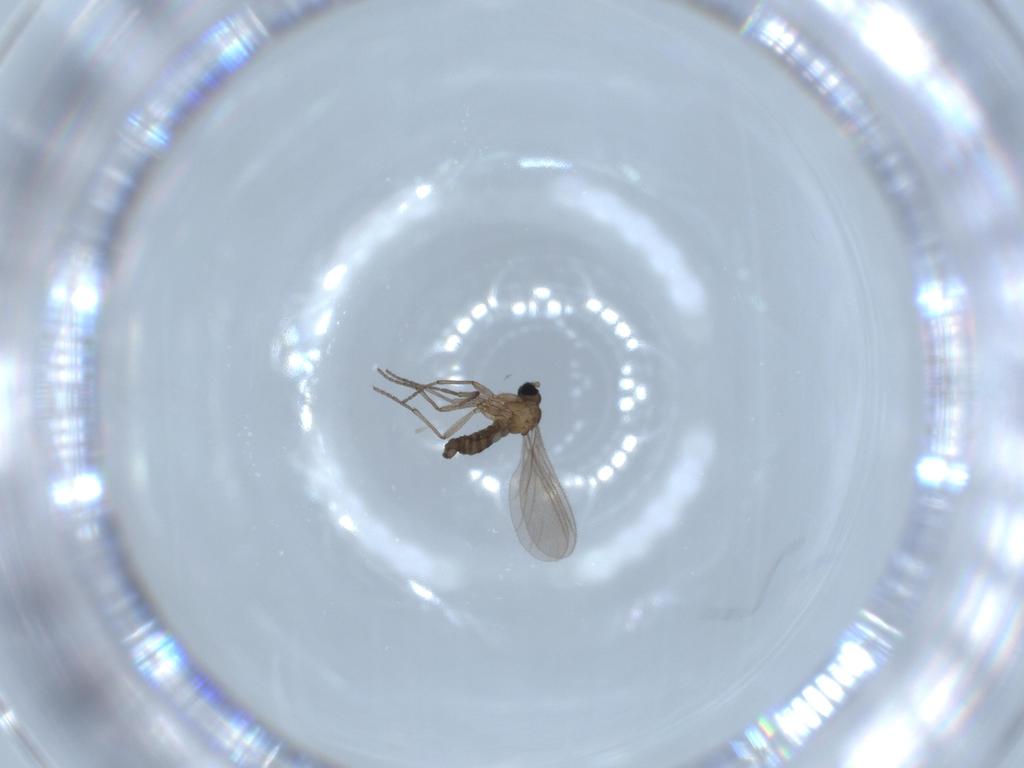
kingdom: Animalia
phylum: Arthropoda
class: Insecta
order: Diptera
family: Sciaridae
